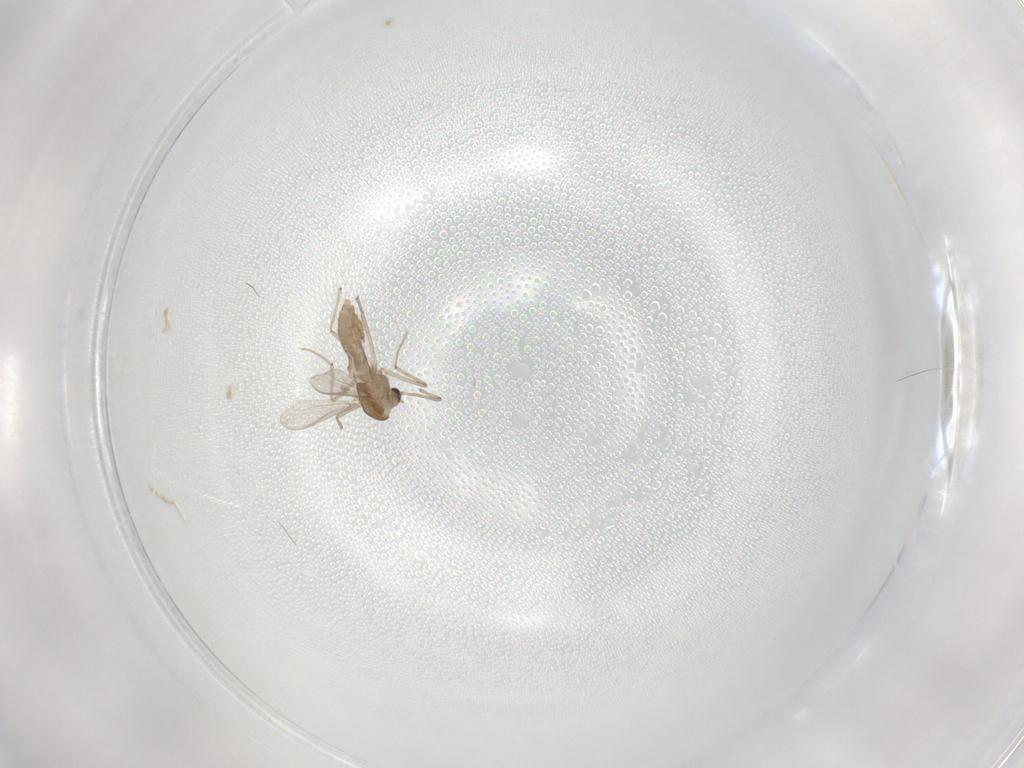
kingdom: Animalia
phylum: Arthropoda
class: Insecta
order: Diptera
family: Chironomidae
